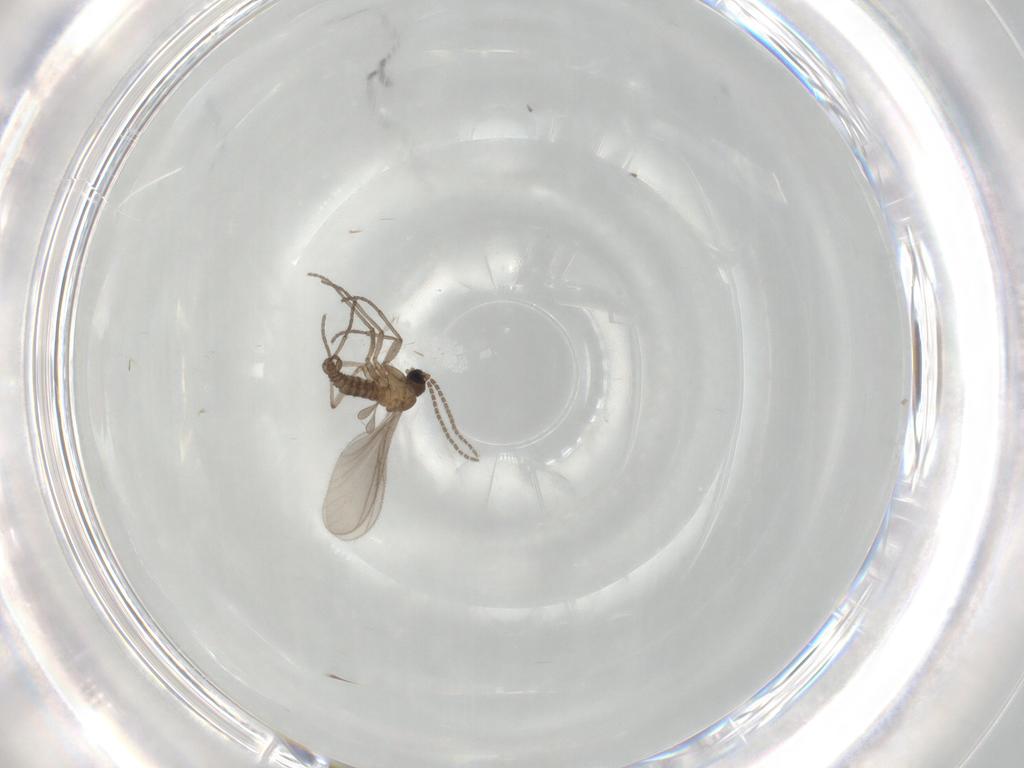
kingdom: Animalia
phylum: Arthropoda
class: Insecta
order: Diptera
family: Sciaridae
